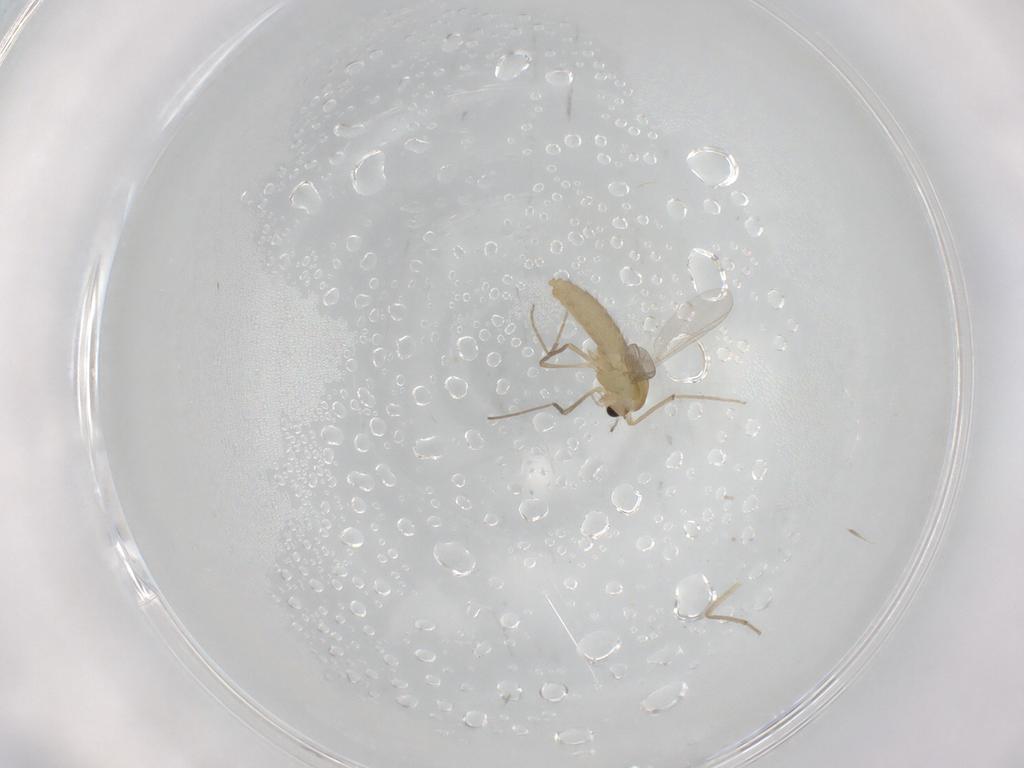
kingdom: Animalia
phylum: Arthropoda
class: Insecta
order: Diptera
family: Chironomidae
